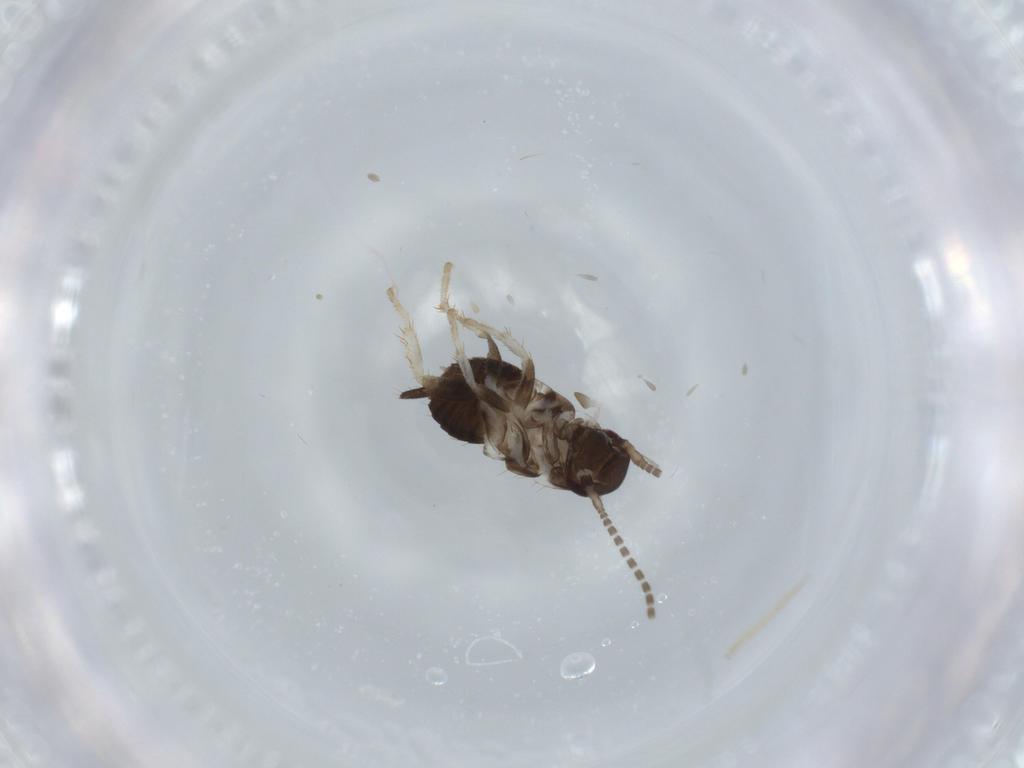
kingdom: Animalia
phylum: Arthropoda
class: Insecta
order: Blattodea
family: Ectobiidae
